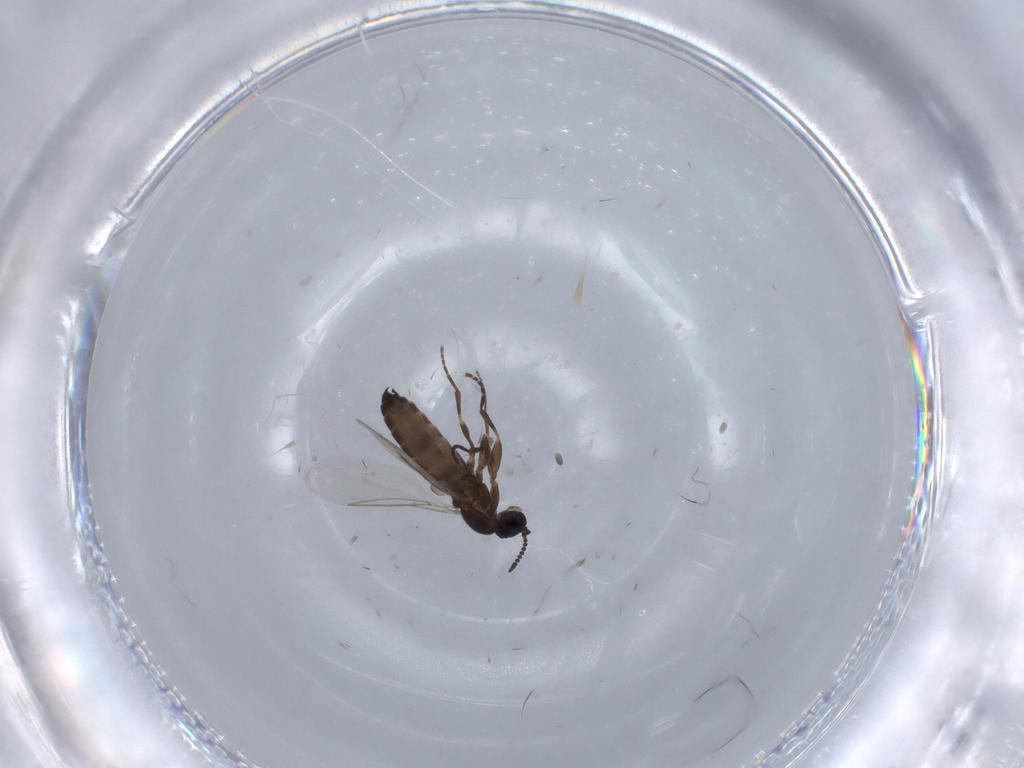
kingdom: Animalia
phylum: Arthropoda
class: Insecta
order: Diptera
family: Scatopsidae
